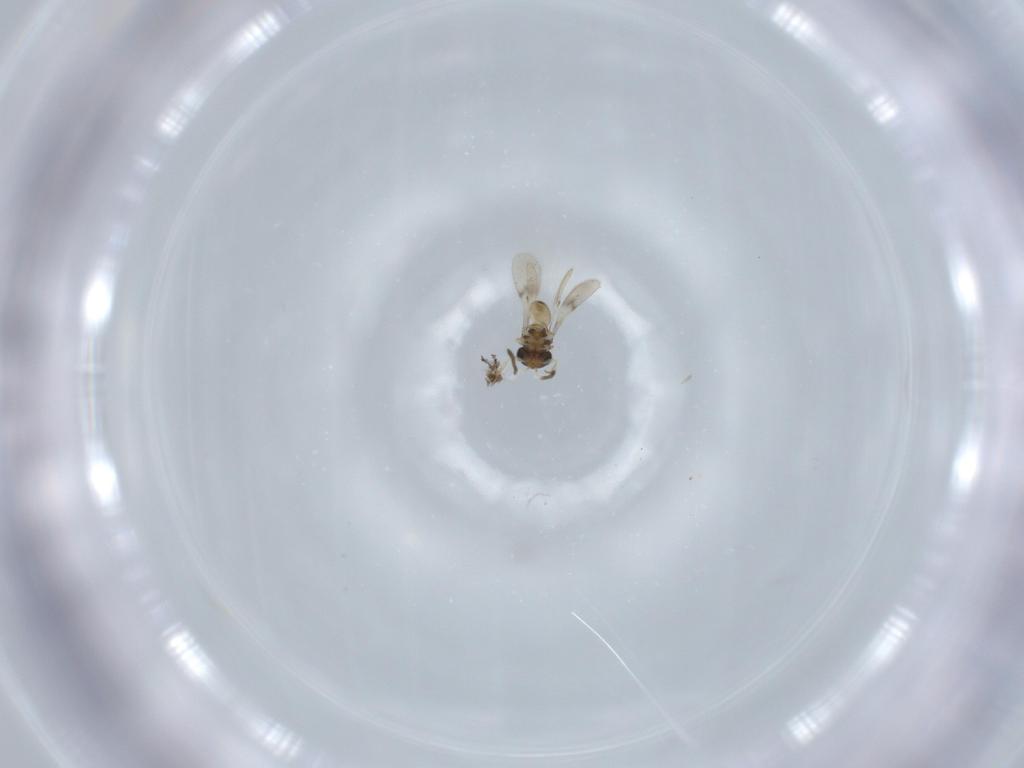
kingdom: Animalia
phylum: Arthropoda
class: Insecta
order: Hymenoptera
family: Scelionidae
